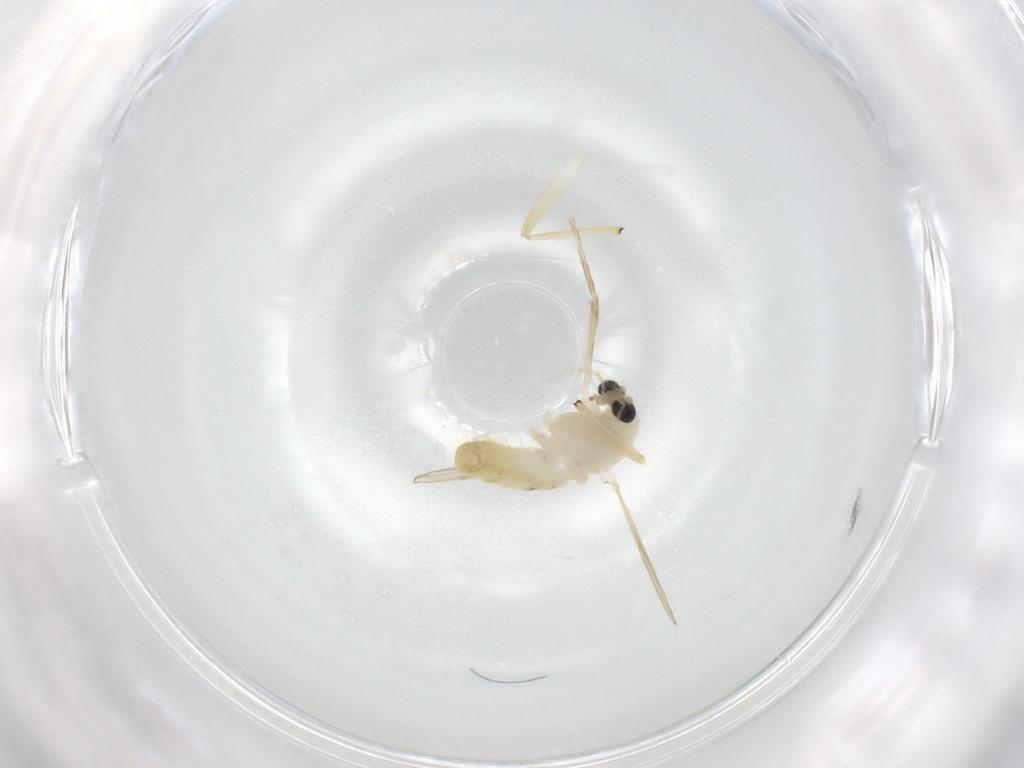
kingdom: Animalia
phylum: Arthropoda
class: Insecta
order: Diptera
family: Chironomidae
